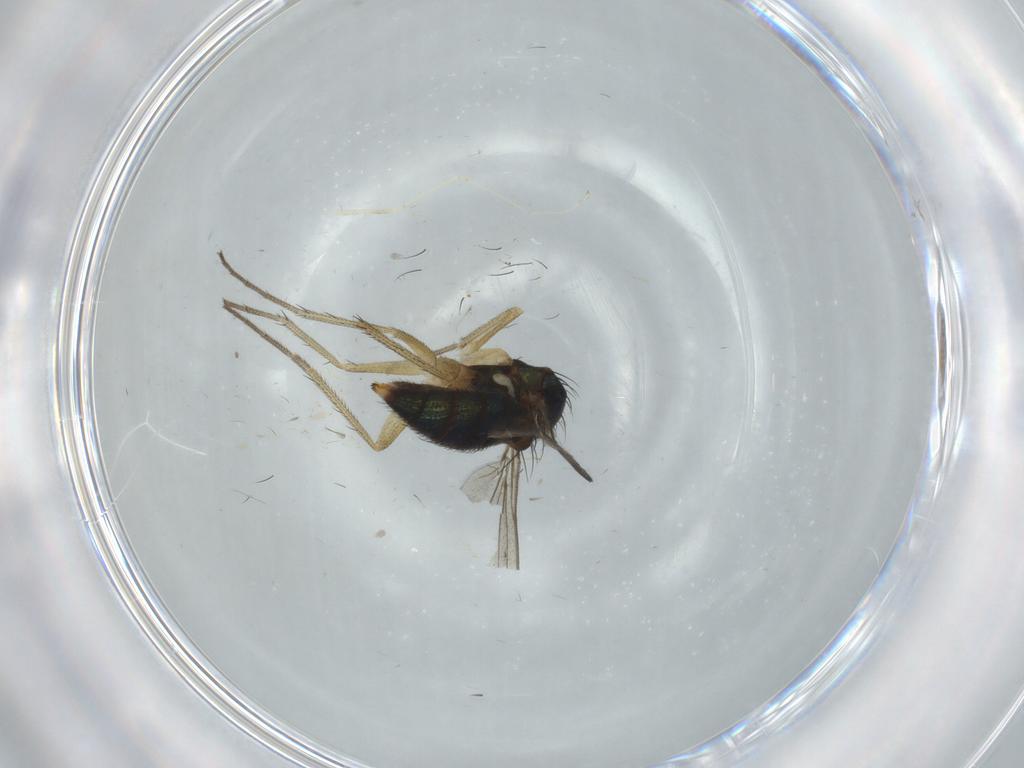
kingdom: Animalia
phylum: Arthropoda
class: Insecta
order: Diptera
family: Dolichopodidae
